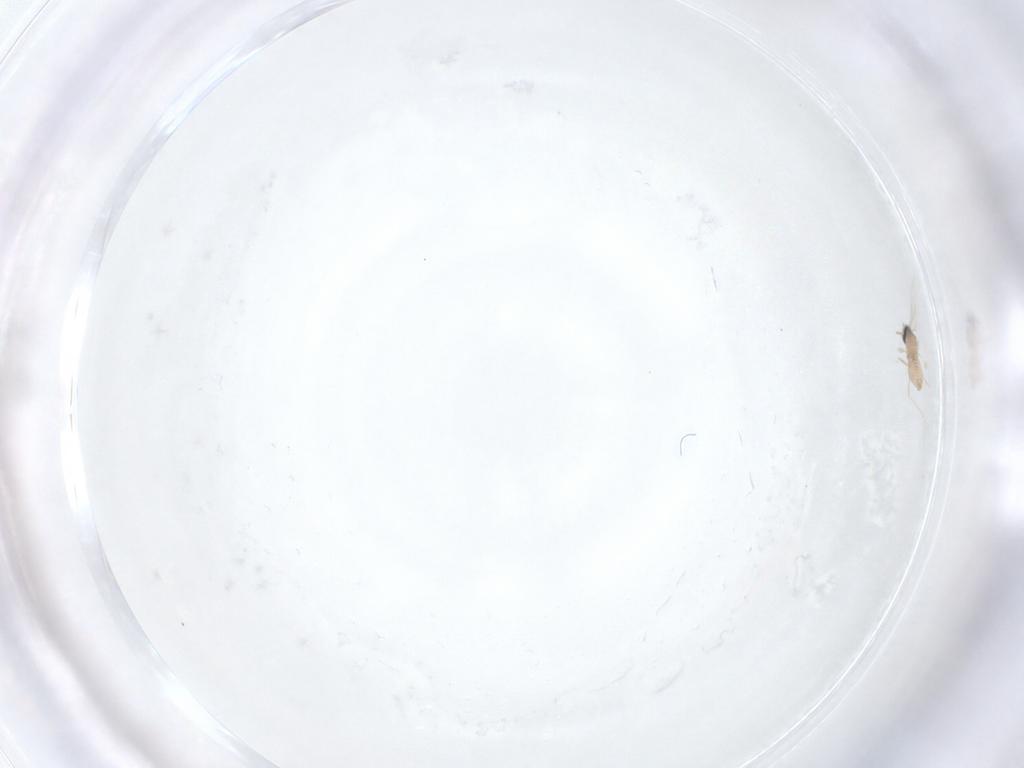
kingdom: Animalia
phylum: Arthropoda
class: Insecta
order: Diptera
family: Cecidomyiidae
